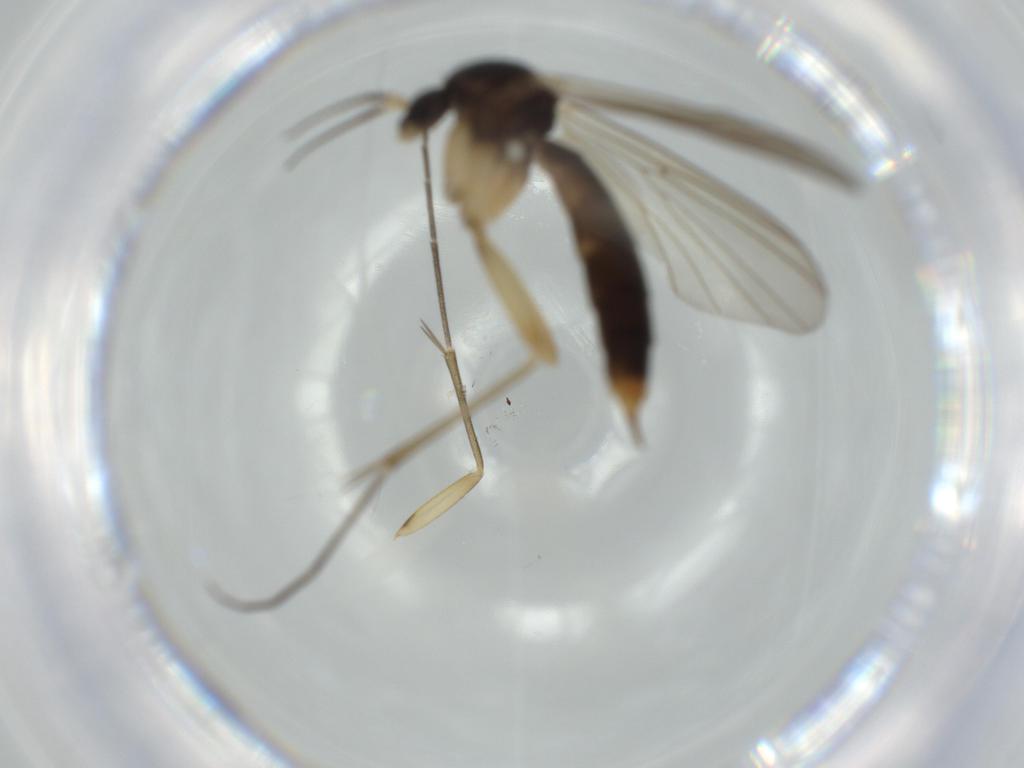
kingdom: Animalia
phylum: Arthropoda
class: Insecta
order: Diptera
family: Phoridae
